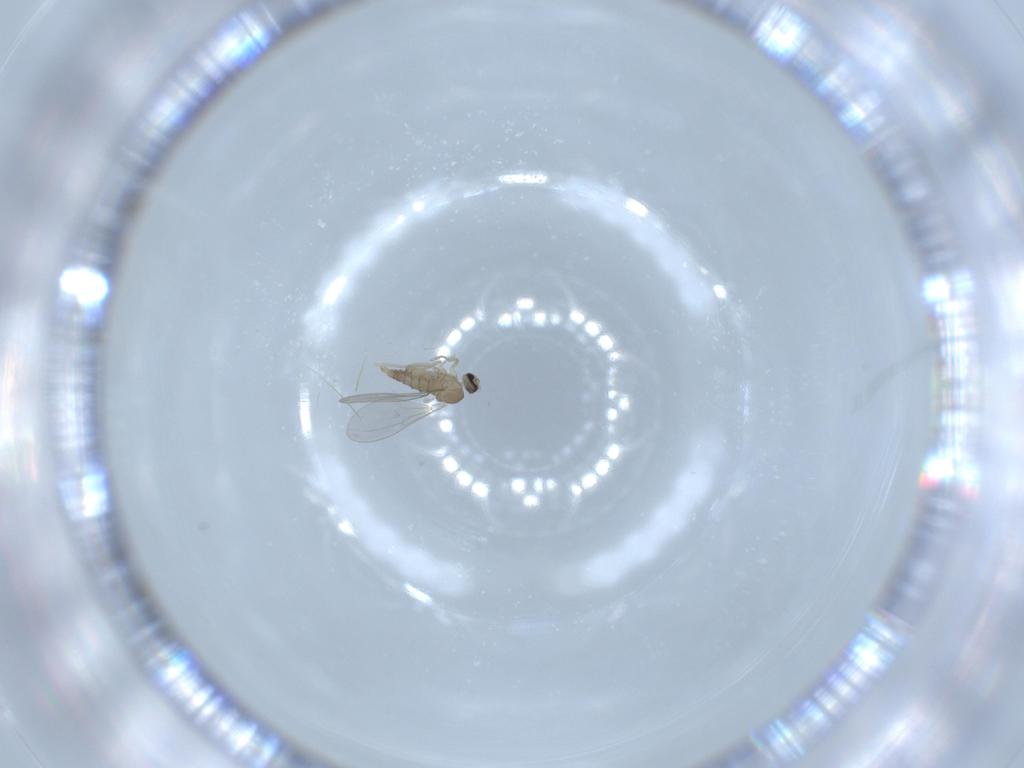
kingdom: Animalia
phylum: Arthropoda
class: Insecta
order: Diptera
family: Cecidomyiidae
